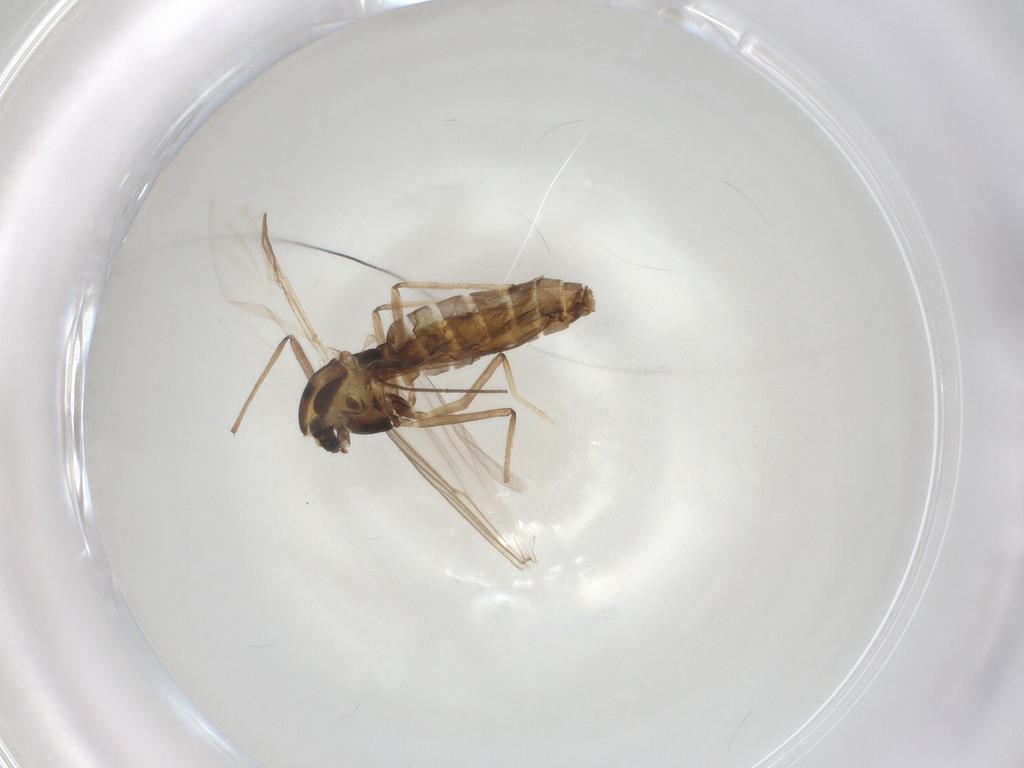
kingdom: Animalia
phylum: Arthropoda
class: Insecta
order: Diptera
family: Chironomidae
